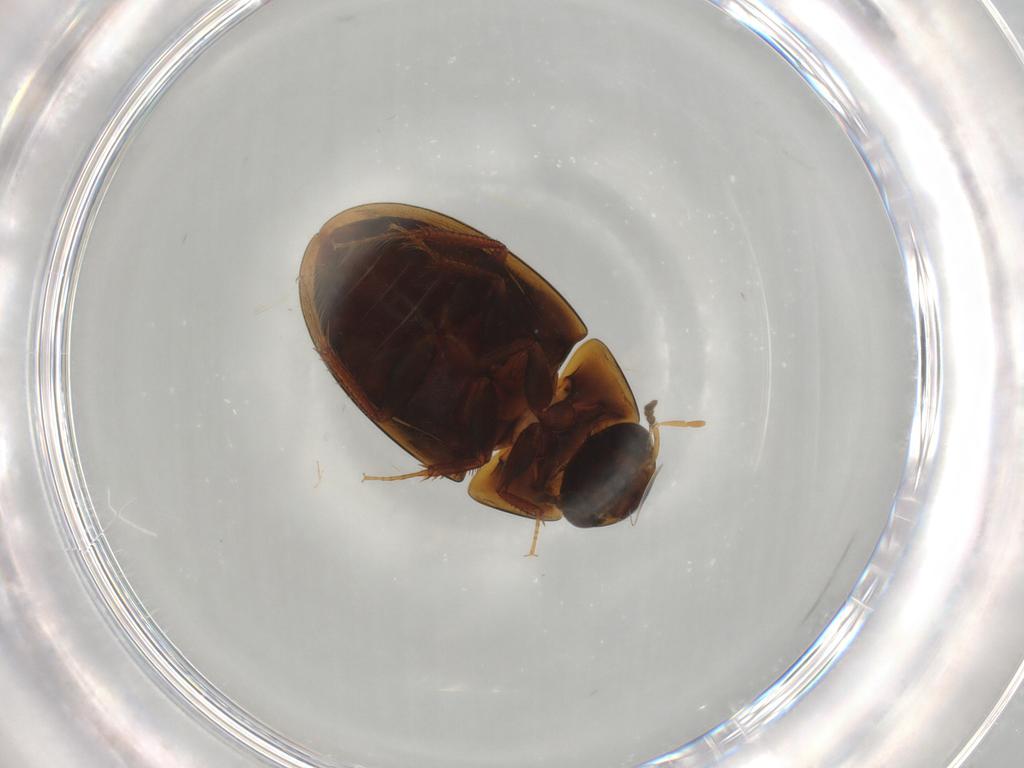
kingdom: Animalia
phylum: Arthropoda
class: Insecta
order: Coleoptera
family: Hydrophilidae
